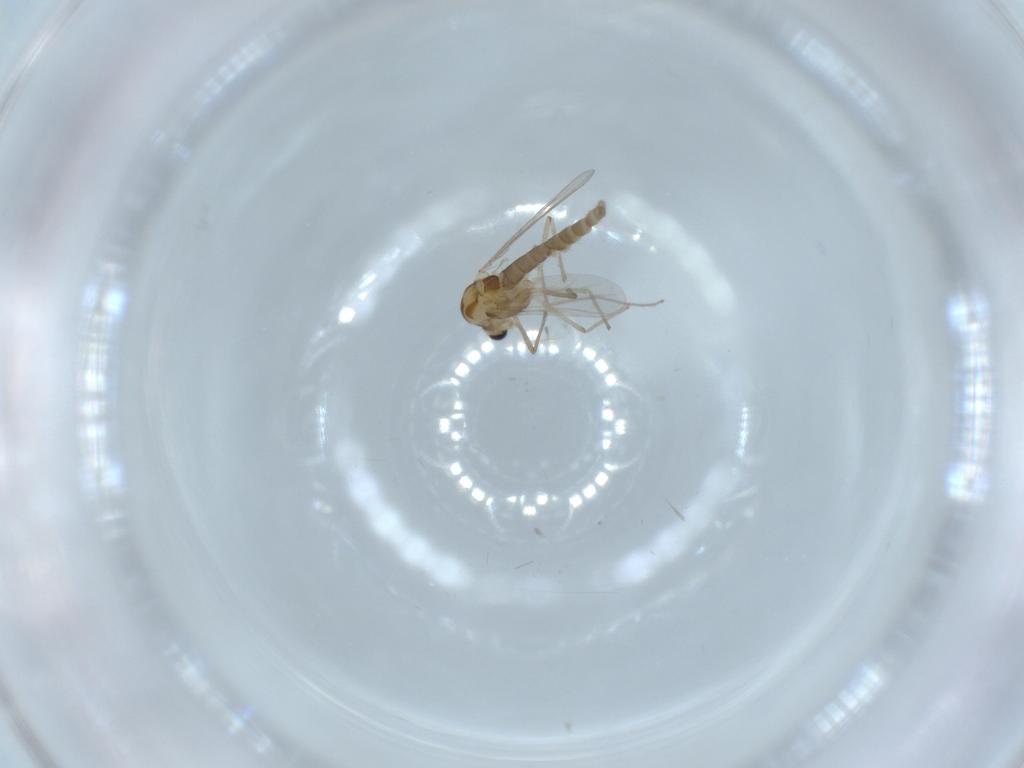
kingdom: Animalia
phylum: Arthropoda
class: Insecta
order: Diptera
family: Chironomidae
